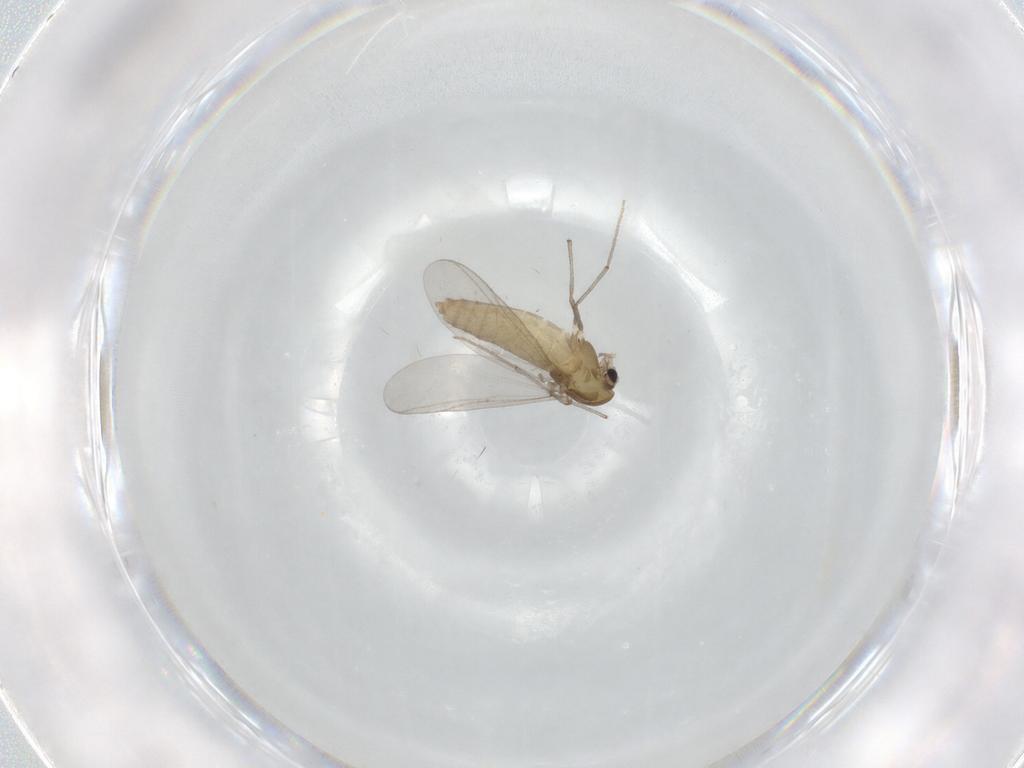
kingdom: Animalia
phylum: Arthropoda
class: Insecta
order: Diptera
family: Chironomidae
